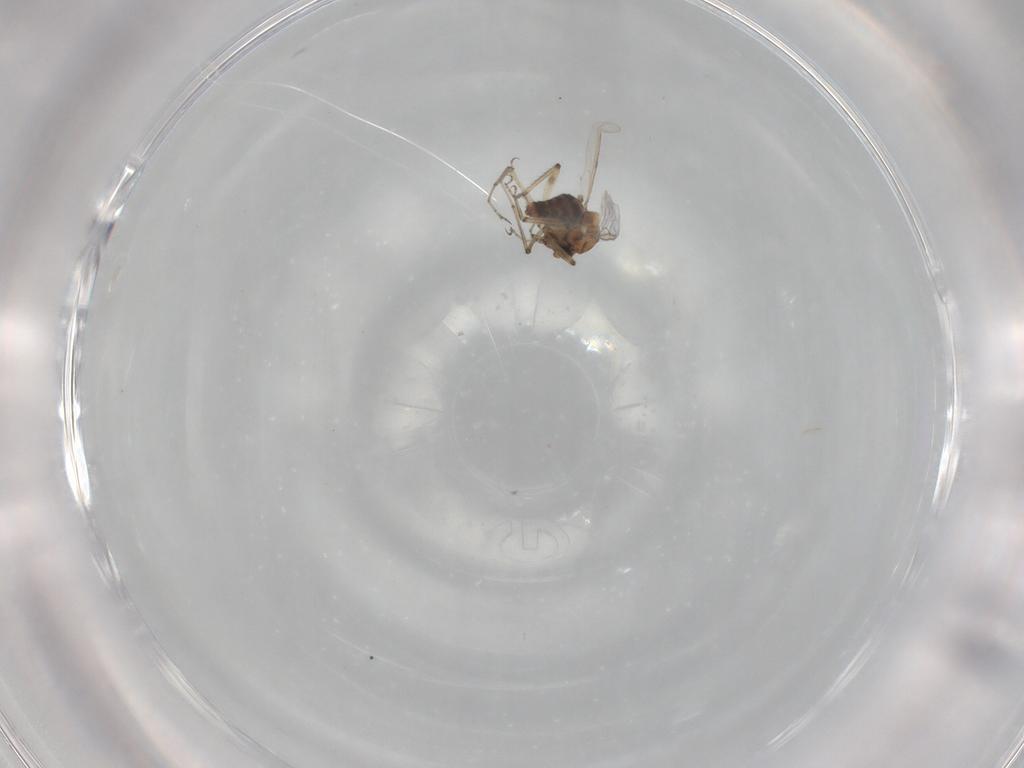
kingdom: Animalia
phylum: Arthropoda
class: Insecta
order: Diptera
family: Ceratopogonidae
